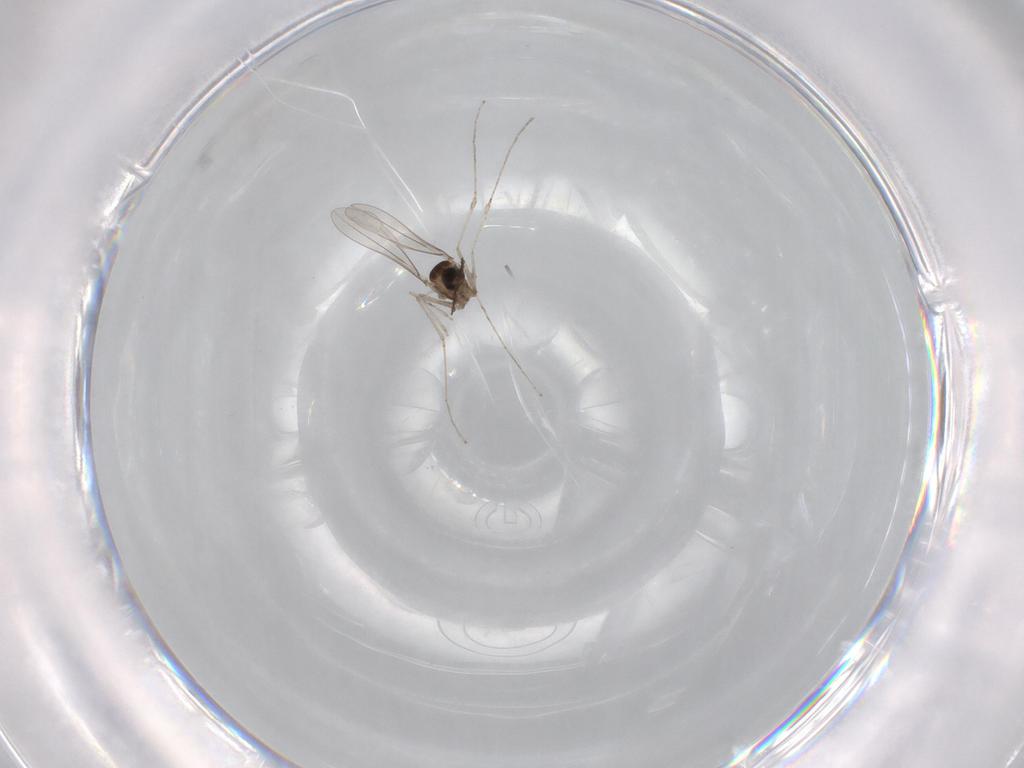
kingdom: Animalia
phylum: Arthropoda
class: Insecta
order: Diptera
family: Cecidomyiidae
